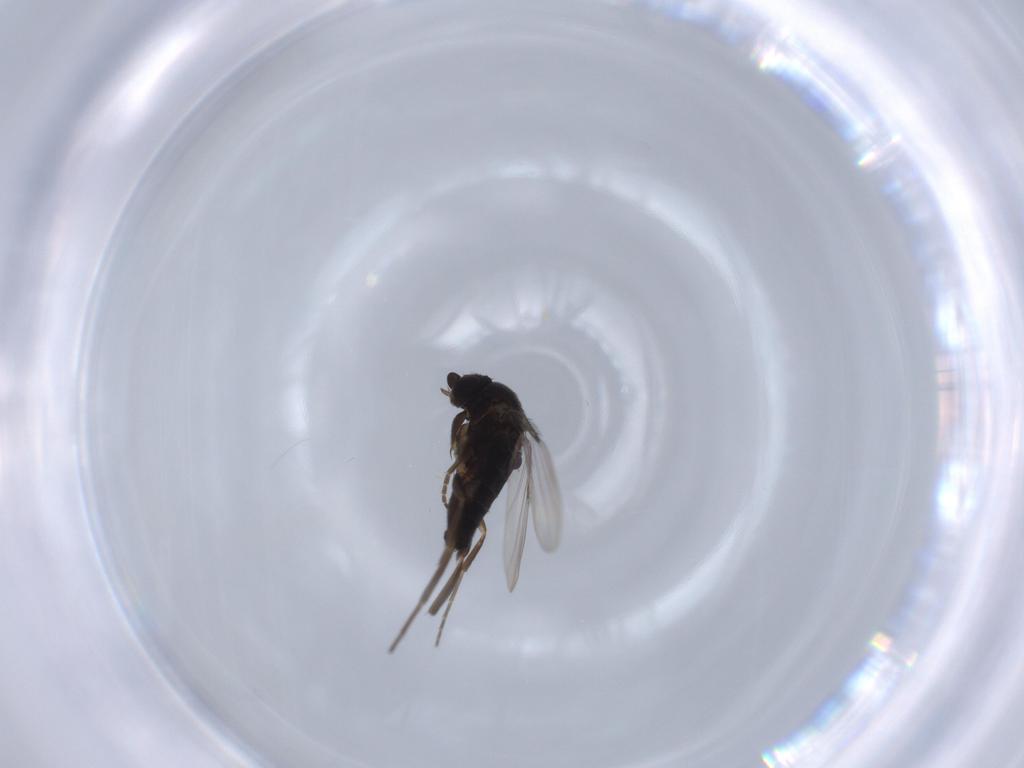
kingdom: Animalia
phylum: Arthropoda
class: Insecta
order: Diptera
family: Phoridae
